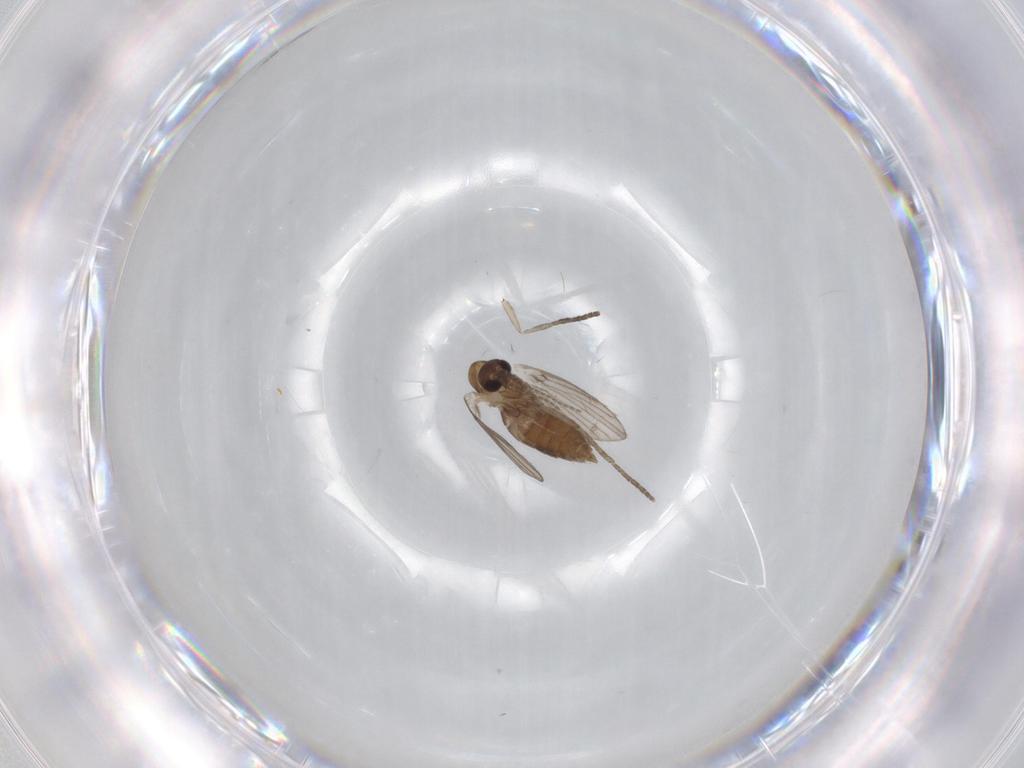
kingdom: Animalia
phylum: Arthropoda
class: Insecta
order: Diptera
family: Psychodidae
